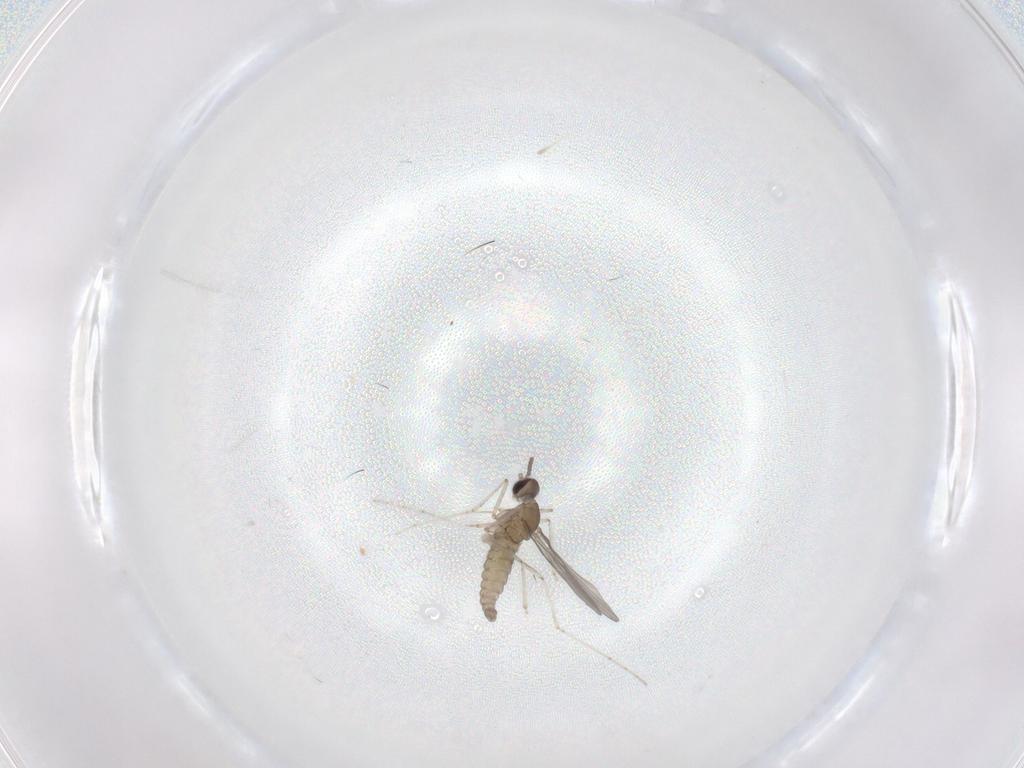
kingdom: Animalia
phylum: Arthropoda
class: Insecta
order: Diptera
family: Cecidomyiidae
